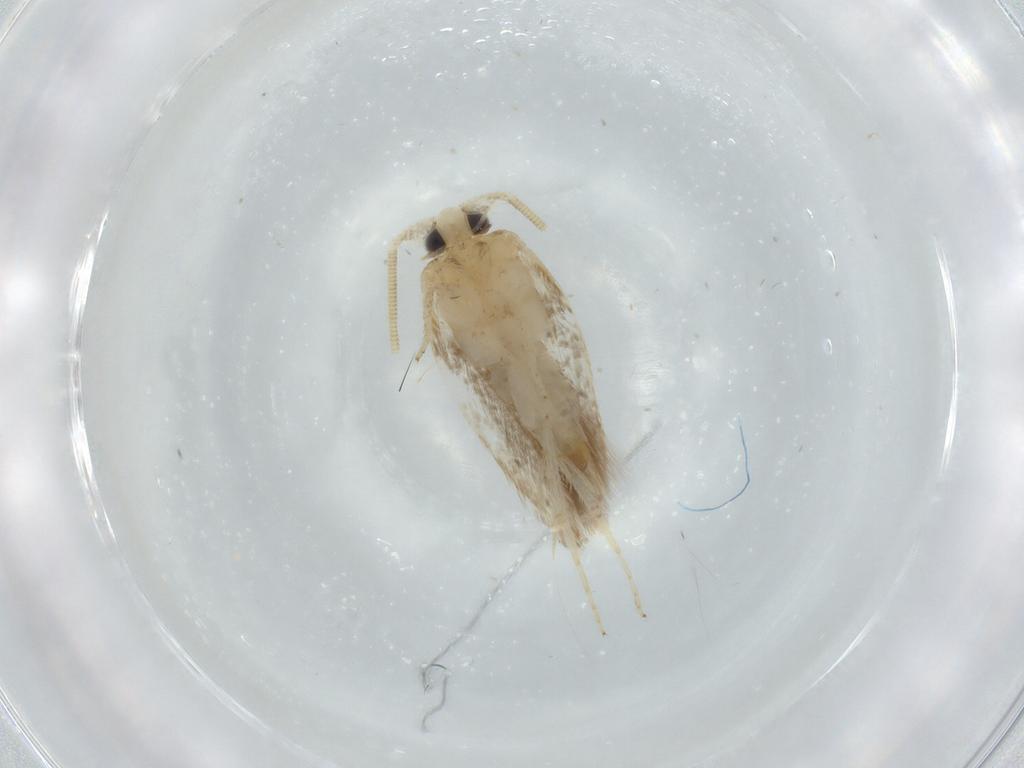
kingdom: Animalia
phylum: Arthropoda
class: Insecta
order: Lepidoptera
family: Opostegidae
